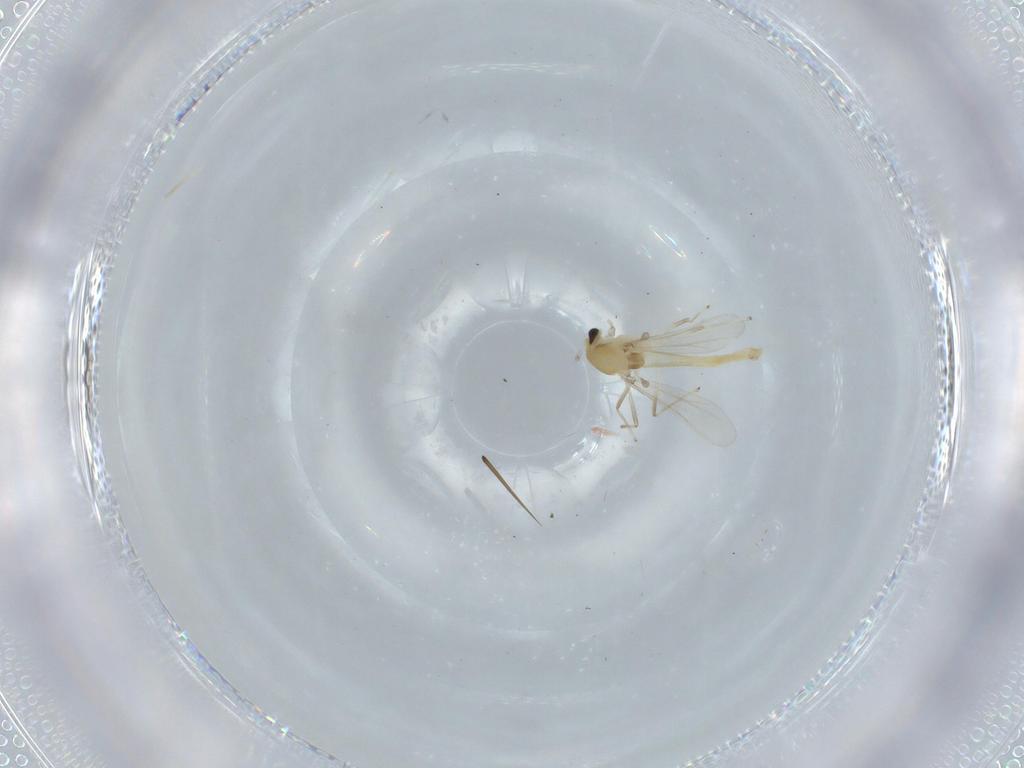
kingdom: Animalia
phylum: Arthropoda
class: Insecta
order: Diptera
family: Chironomidae
